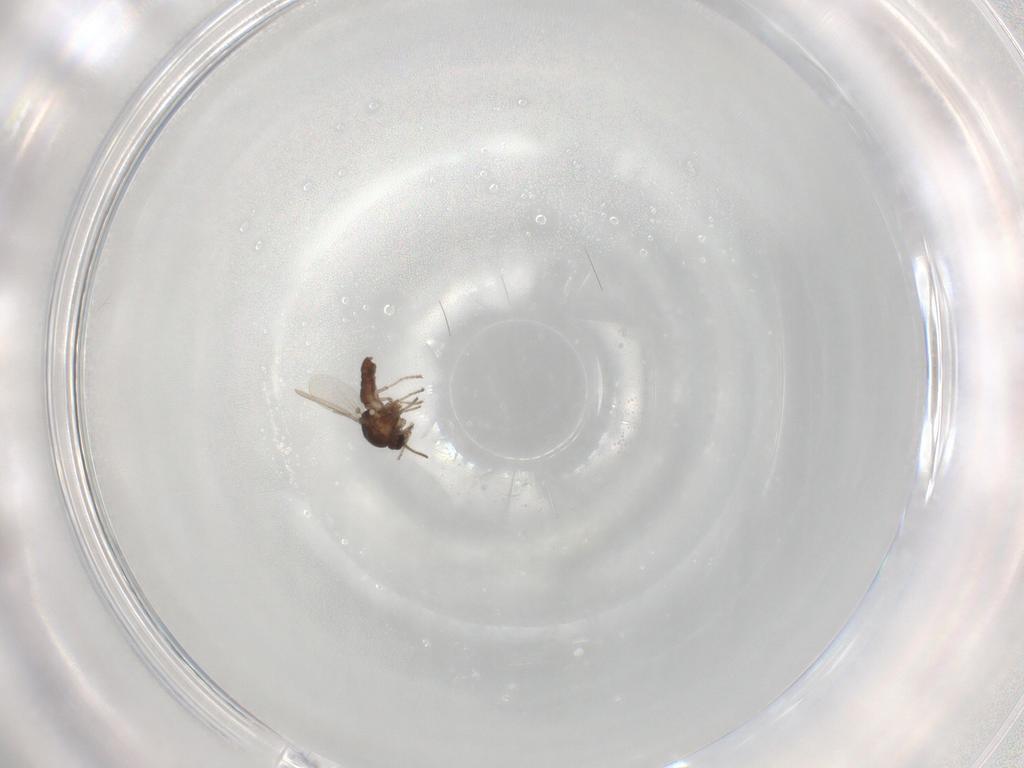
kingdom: Animalia
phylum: Arthropoda
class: Insecta
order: Diptera
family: Ceratopogonidae
